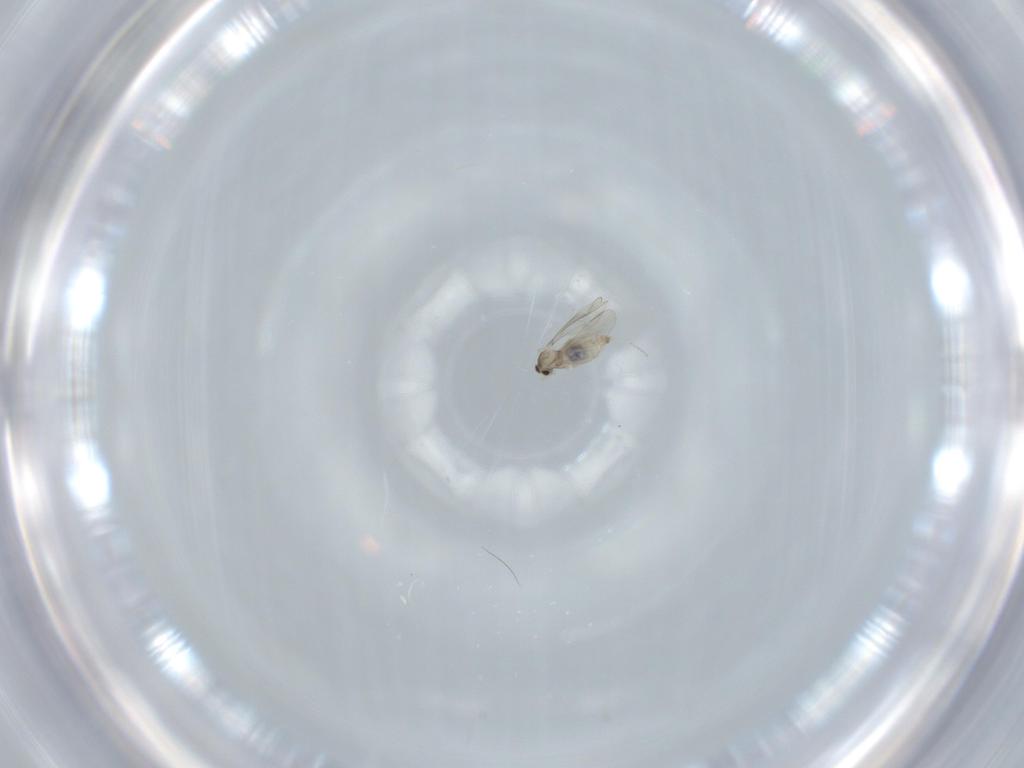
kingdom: Animalia
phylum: Arthropoda
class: Insecta
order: Diptera
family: Cecidomyiidae
